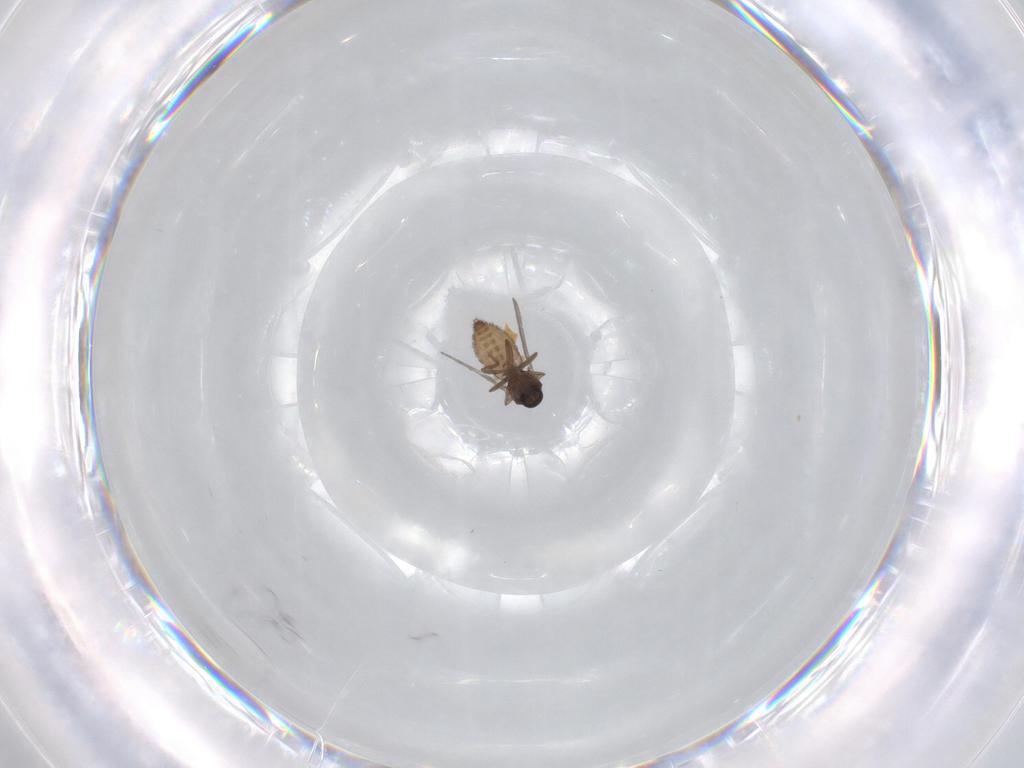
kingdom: Animalia
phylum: Arthropoda
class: Insecta
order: Diptera
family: Ceratopogonidae
